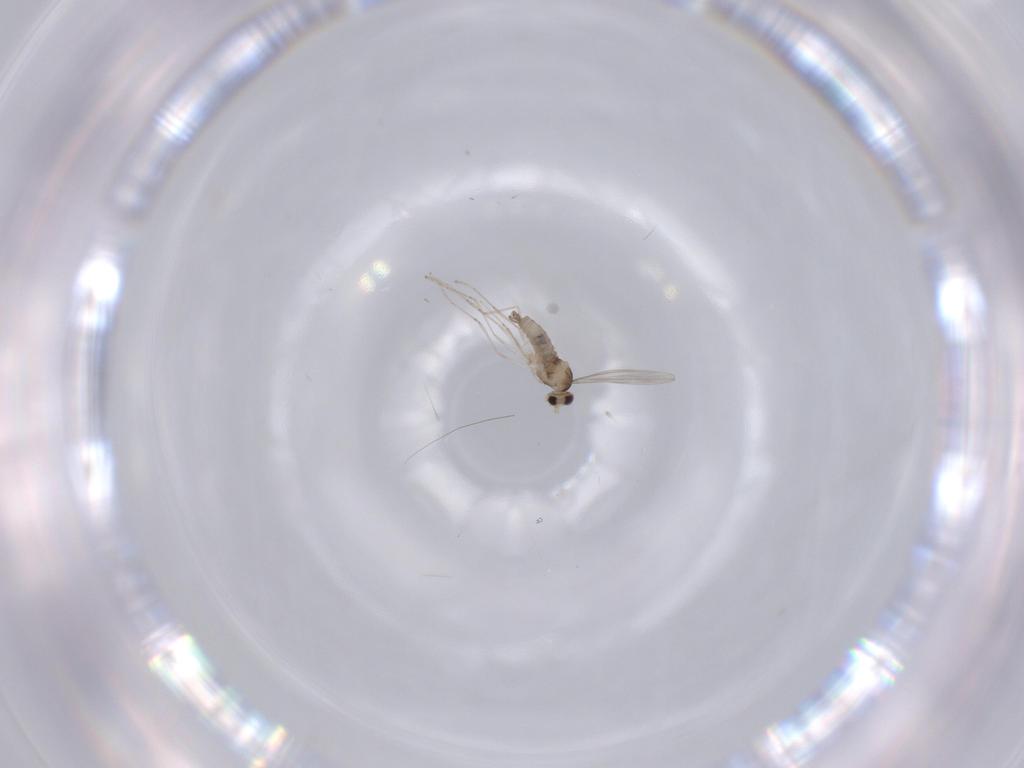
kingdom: Animalia
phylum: Arthropoda
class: Insecta
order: Diptera
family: Cecidomyiidae
